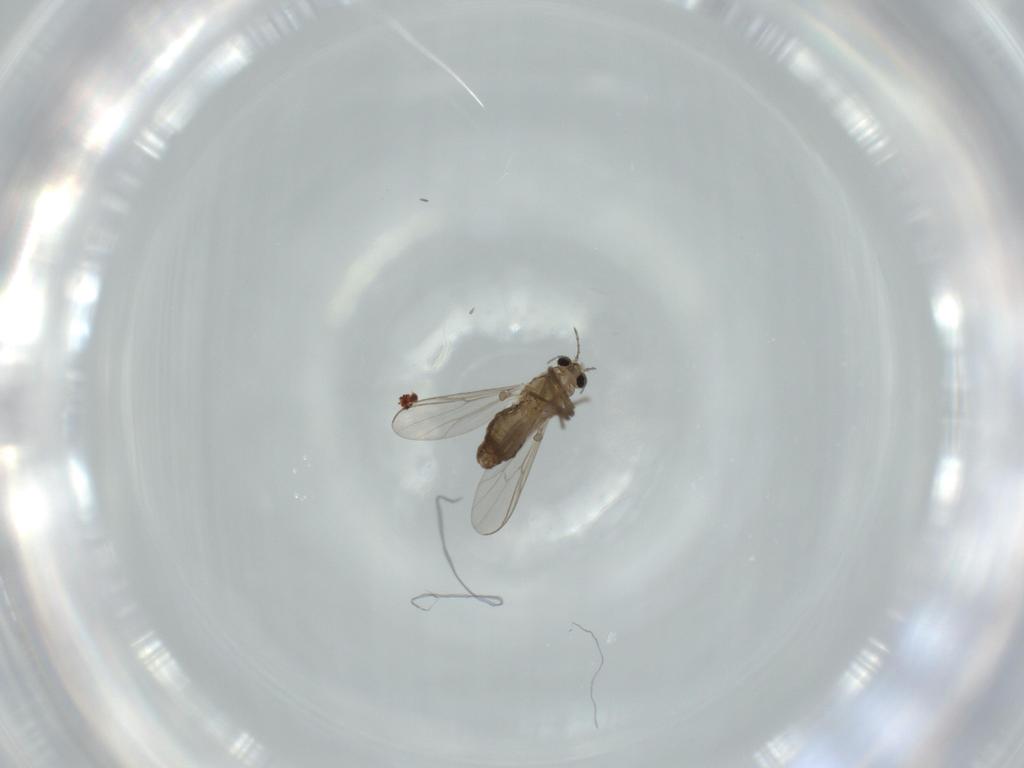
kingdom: Animalia
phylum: Arthropoda
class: Insecta
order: Diptera
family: Chironomidae
